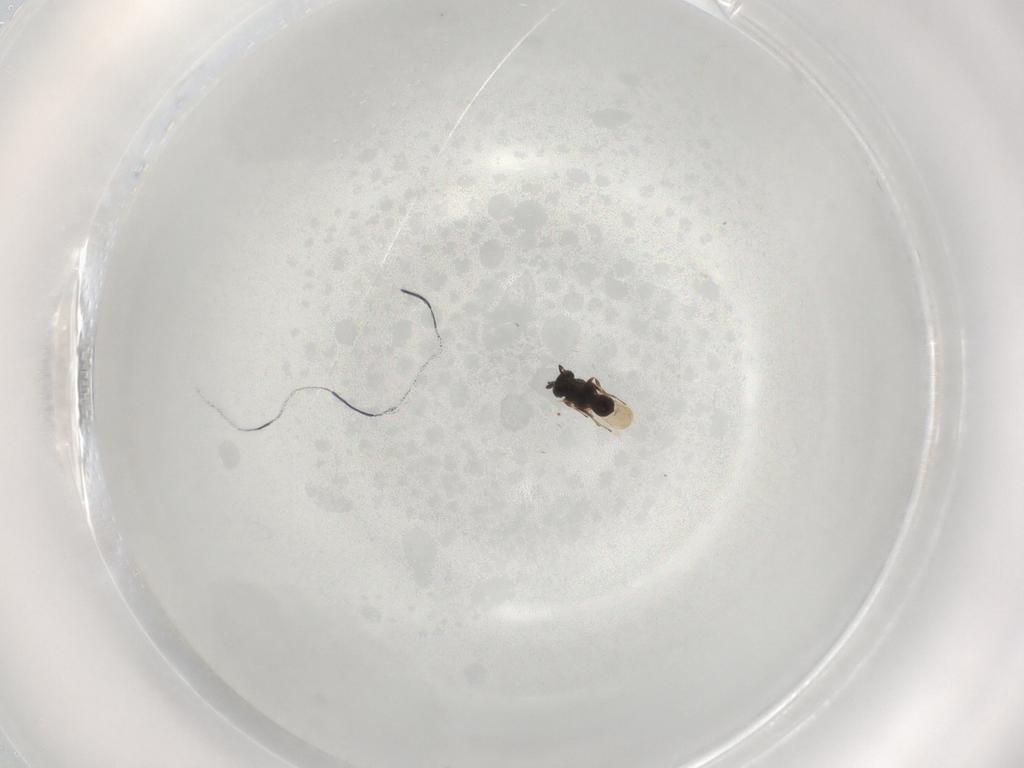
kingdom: Animalia
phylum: Arthropoda
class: Insecta
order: Hymenoptera
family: Scelionidae
